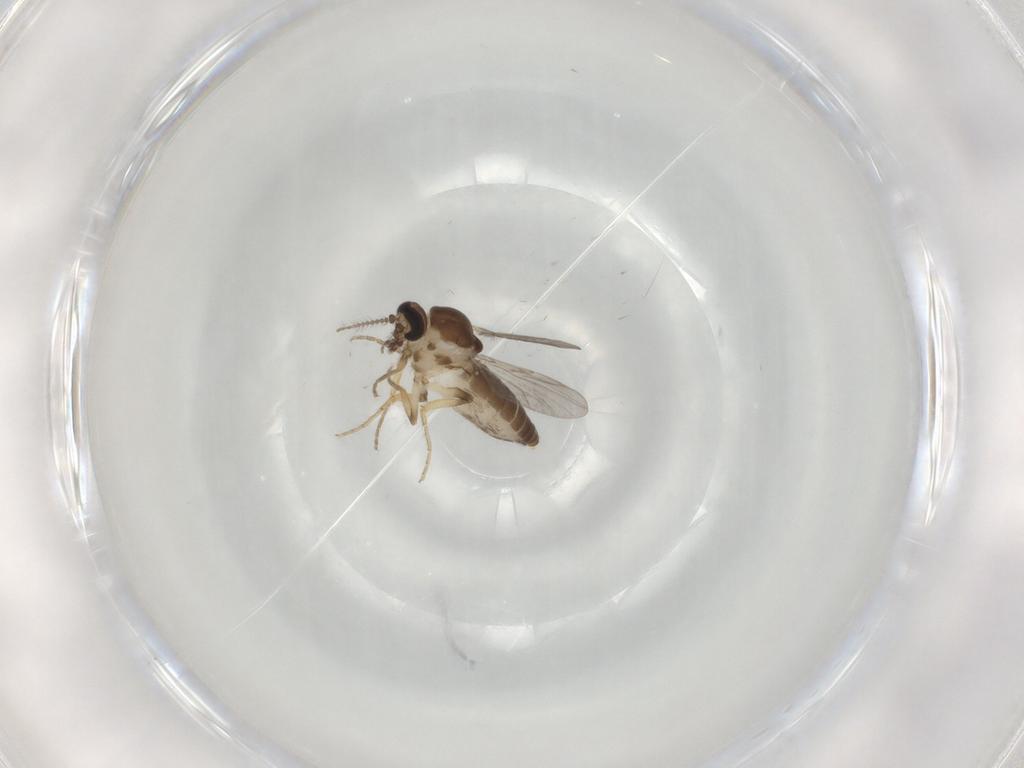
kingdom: Animalia
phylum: Arthropoda
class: Insecta
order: Diptera
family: Ceratopogonidae
